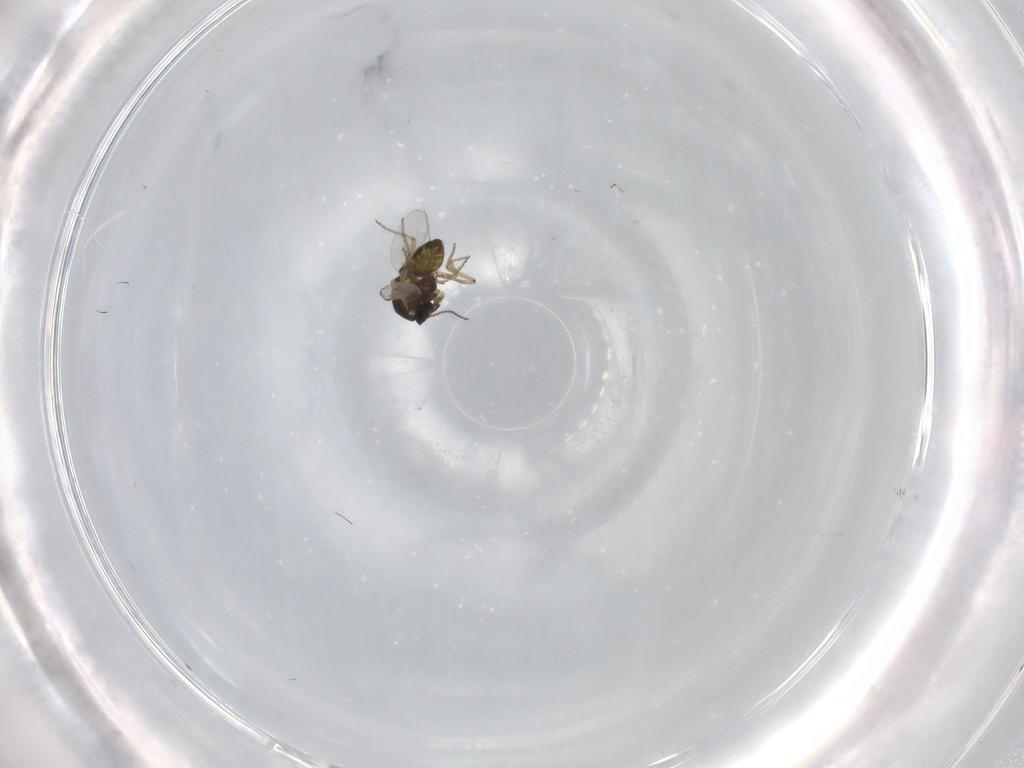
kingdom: Animalia
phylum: Arthropoda
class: Insecta
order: Diptera
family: Ceratopogonidae
